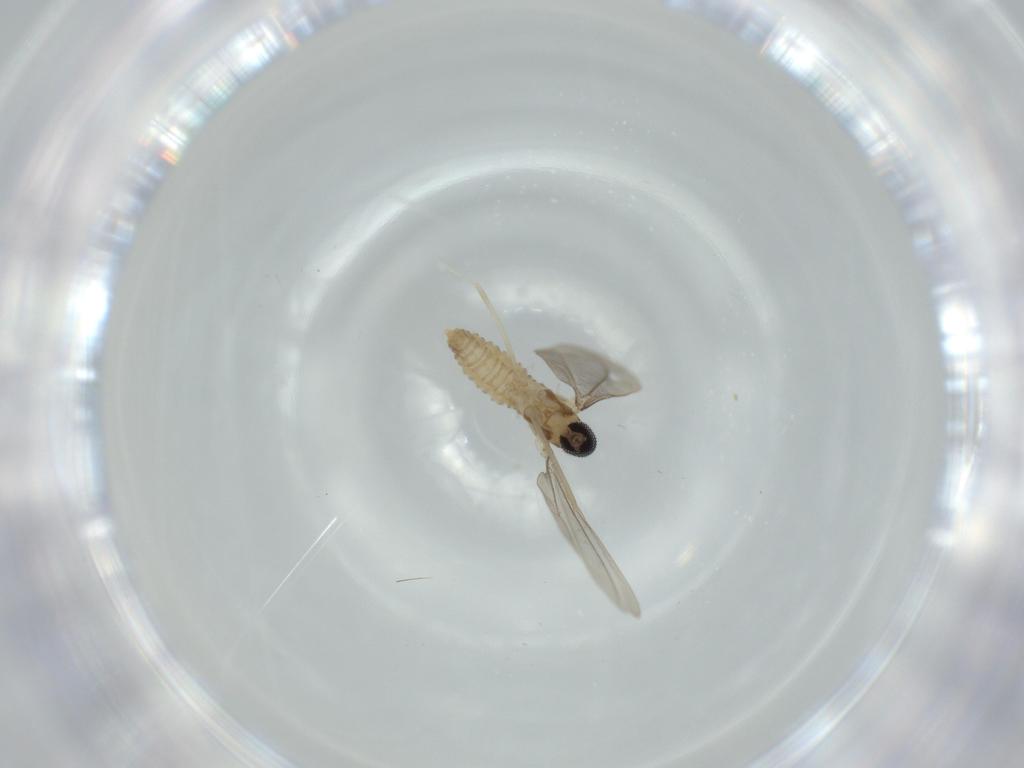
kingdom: Animalia
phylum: Arthropoda
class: Insecta
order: Diptera
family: Cecidomyiidae
